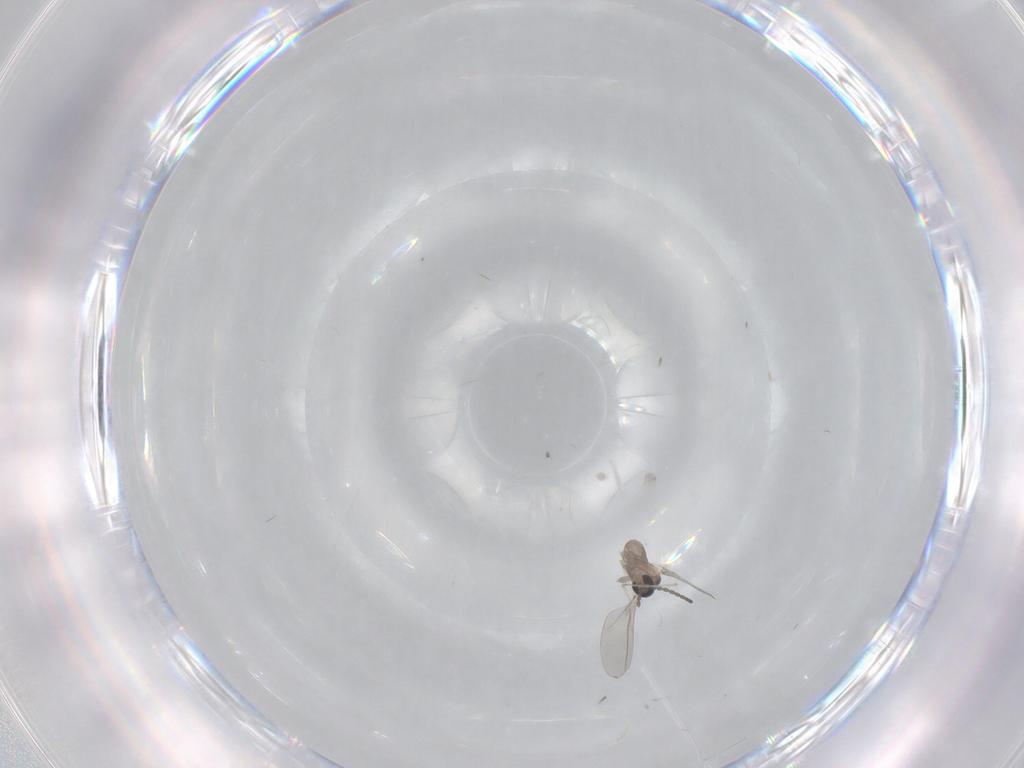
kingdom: Animalia
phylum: Arthropoda
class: Insecta
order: Diptera
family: Cecidomyiidae
